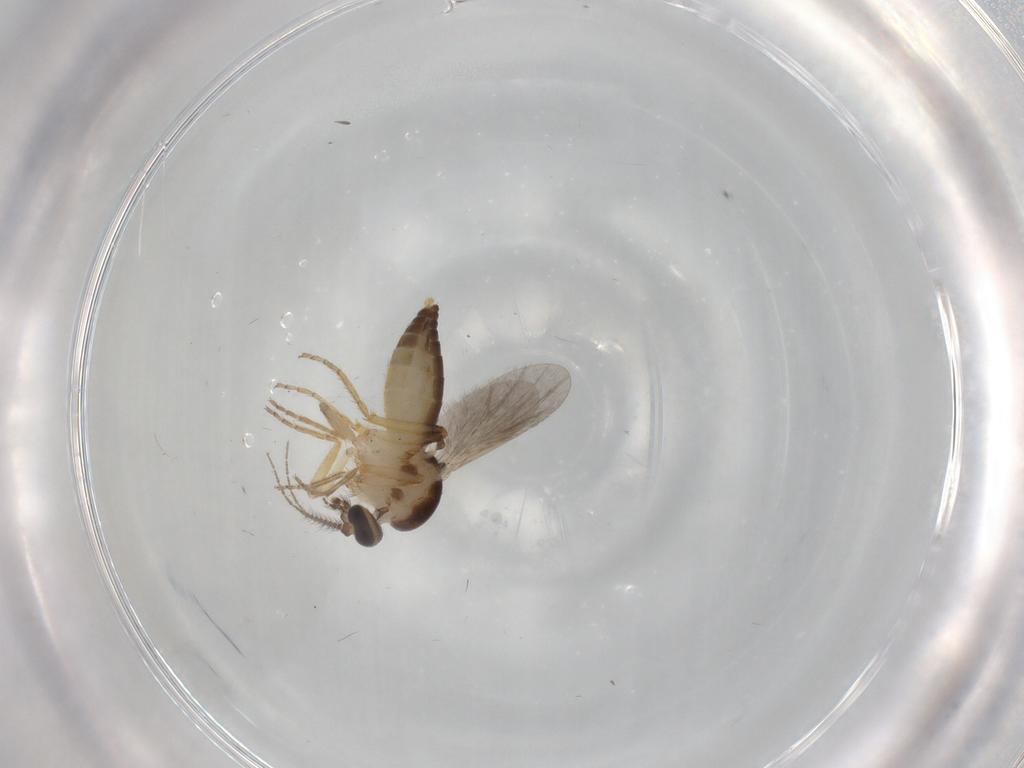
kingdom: Animalia
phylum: Arthropoda
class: Insecta
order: Diptera
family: Ceratopogonidae
